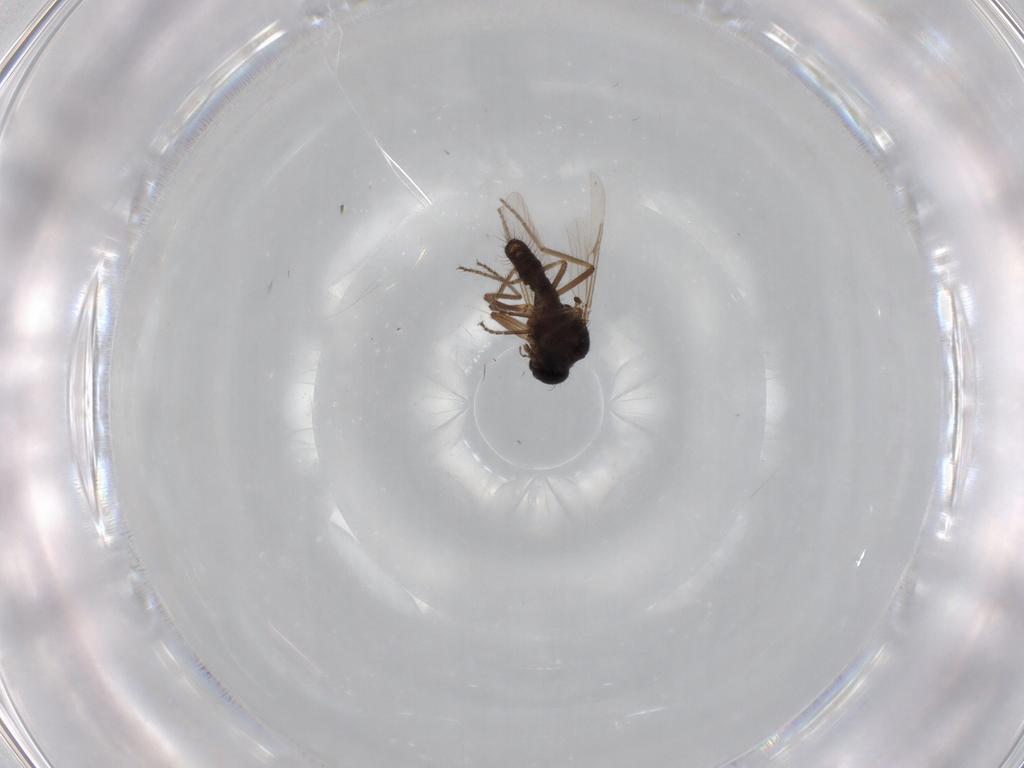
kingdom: Animalia
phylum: Arthropoda
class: Insecta
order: Diptera
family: Ceratopogonidae
